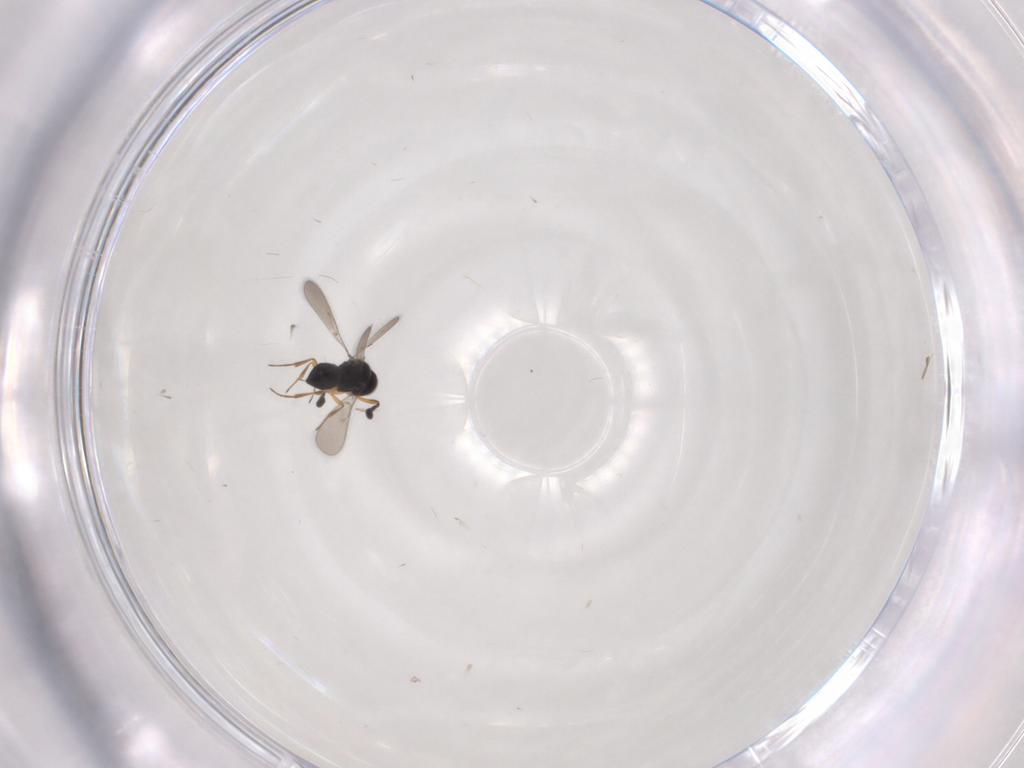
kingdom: Animalia
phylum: Arthropoda
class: Insecta
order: Hymenoptera
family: Scelionidae
